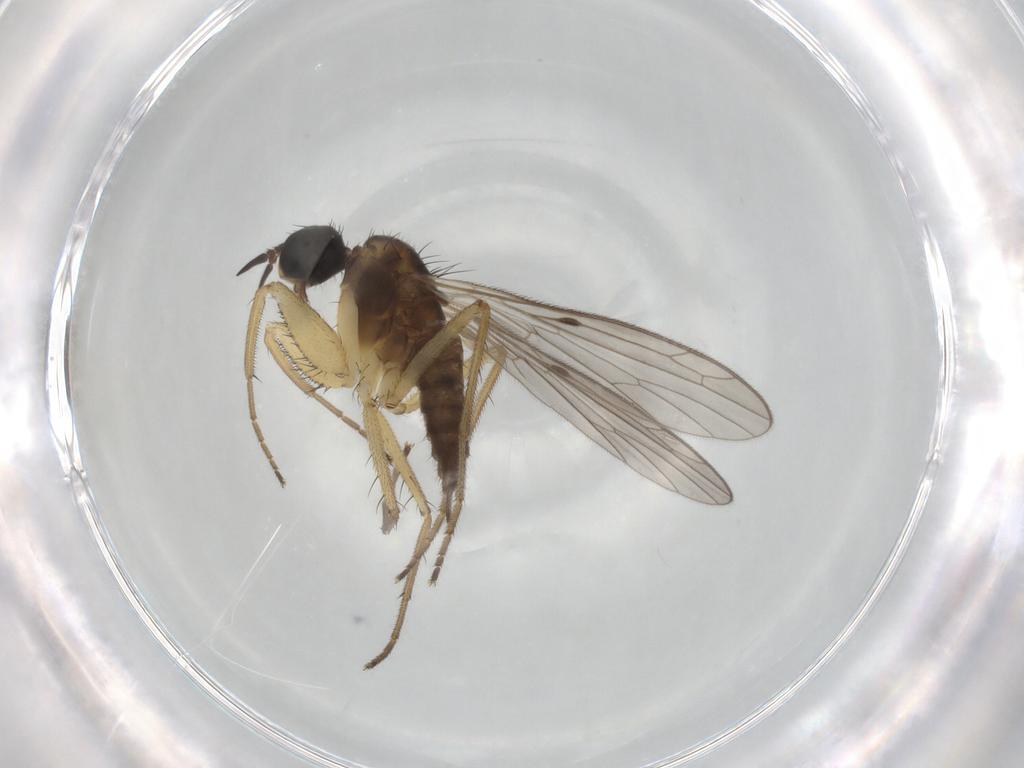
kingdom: Animalia
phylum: Arthropoda
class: Insecta
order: Diptera
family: Chironomidae
